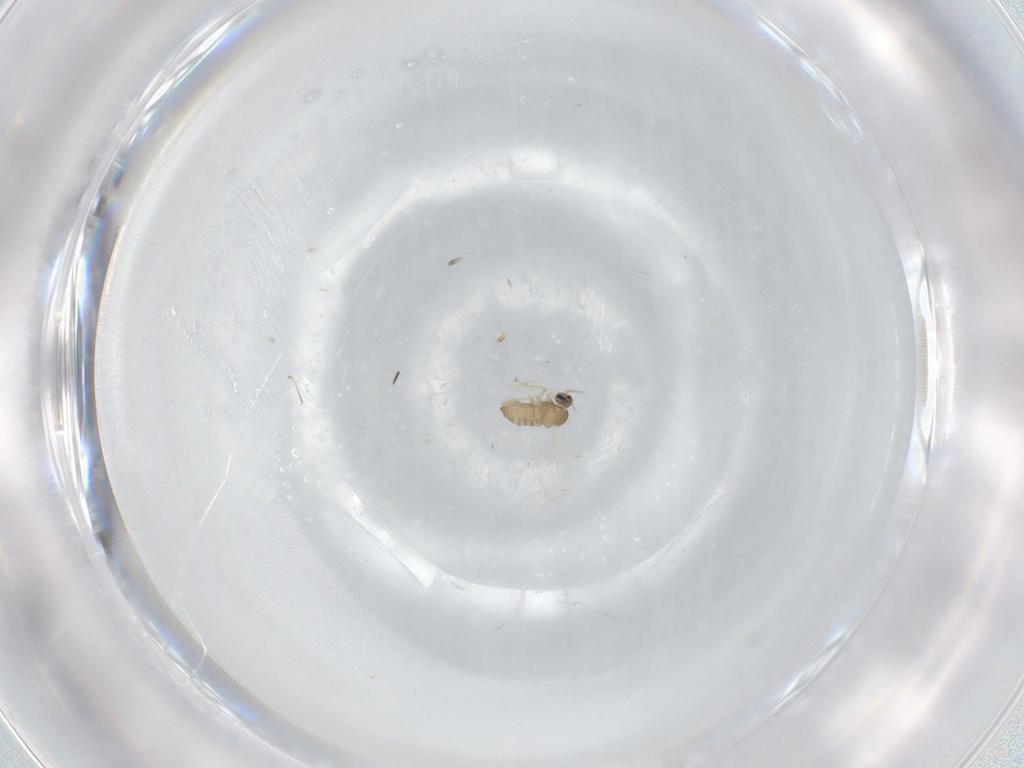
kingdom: Animalia
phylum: Arthropoda
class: Insecta
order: Diptera
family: Cecidomyiidae
